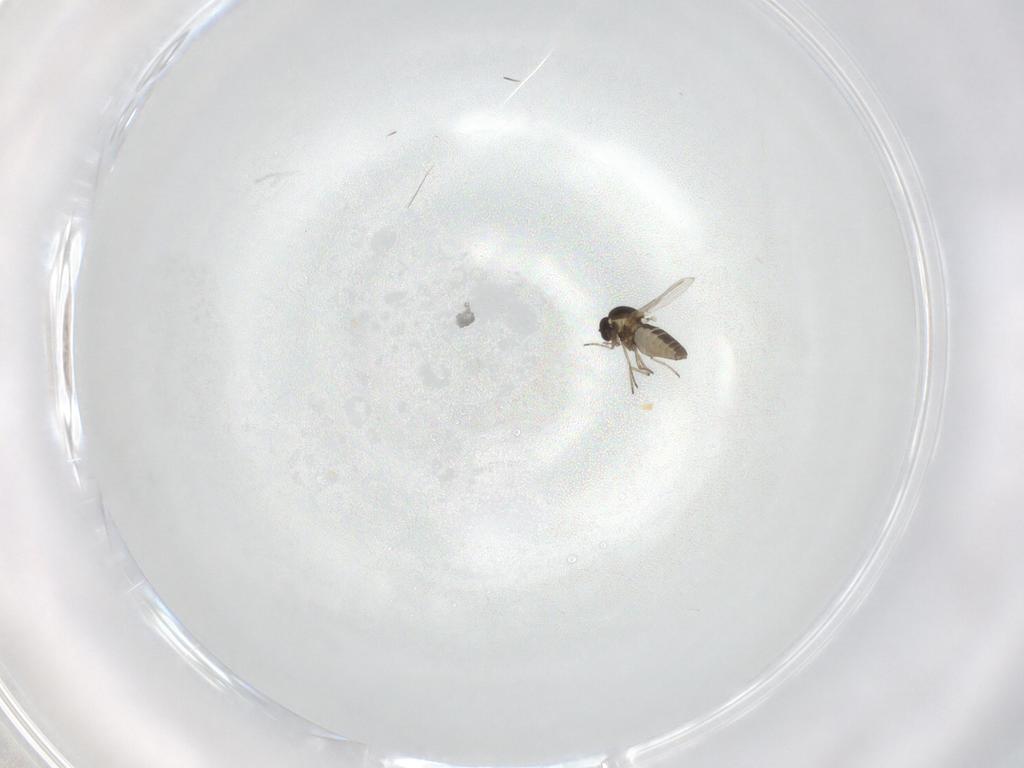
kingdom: Animalia
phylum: Arthropoda
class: Insecta
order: Diptera
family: Ceratopogonidae
